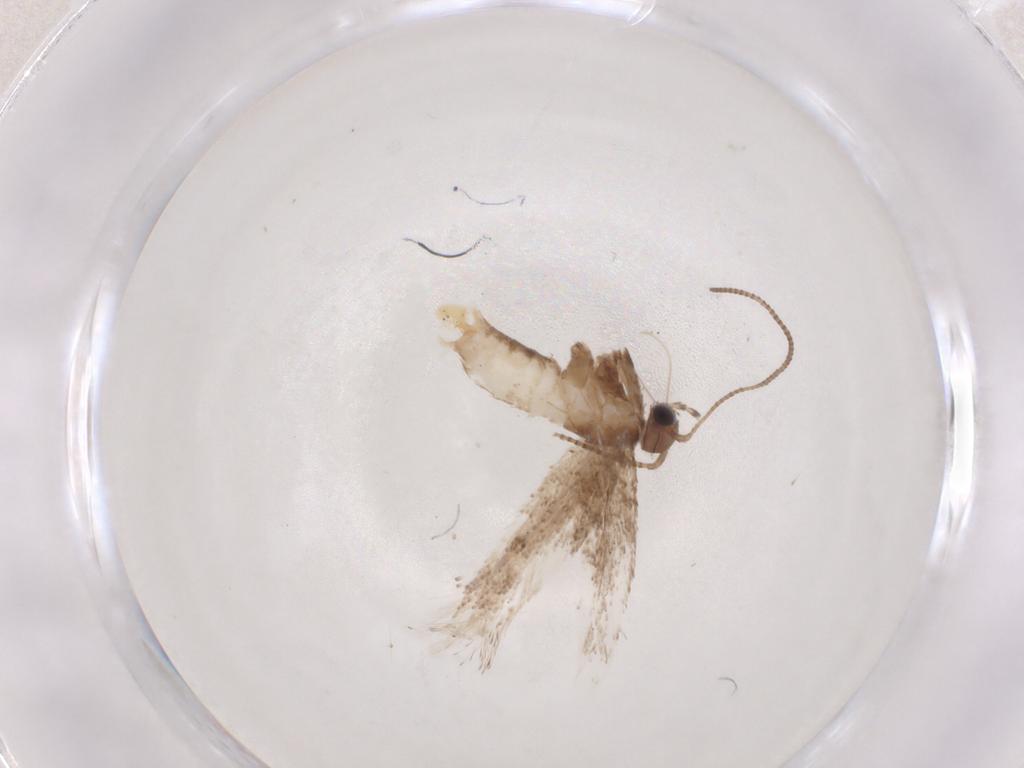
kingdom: Animalia
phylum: Arthropoda
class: Insecta
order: Lepidoptera
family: Gracillariidae
